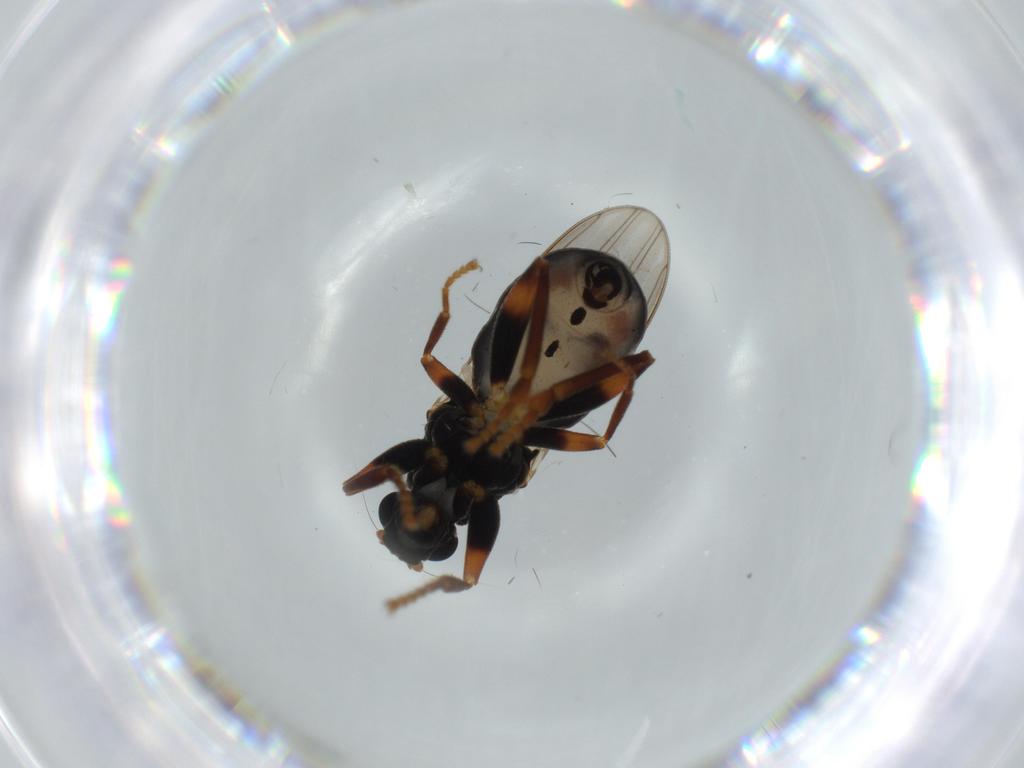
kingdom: Animalia
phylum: Arthropoda
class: Insecta
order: Diptera
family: Sphaeroceridae
